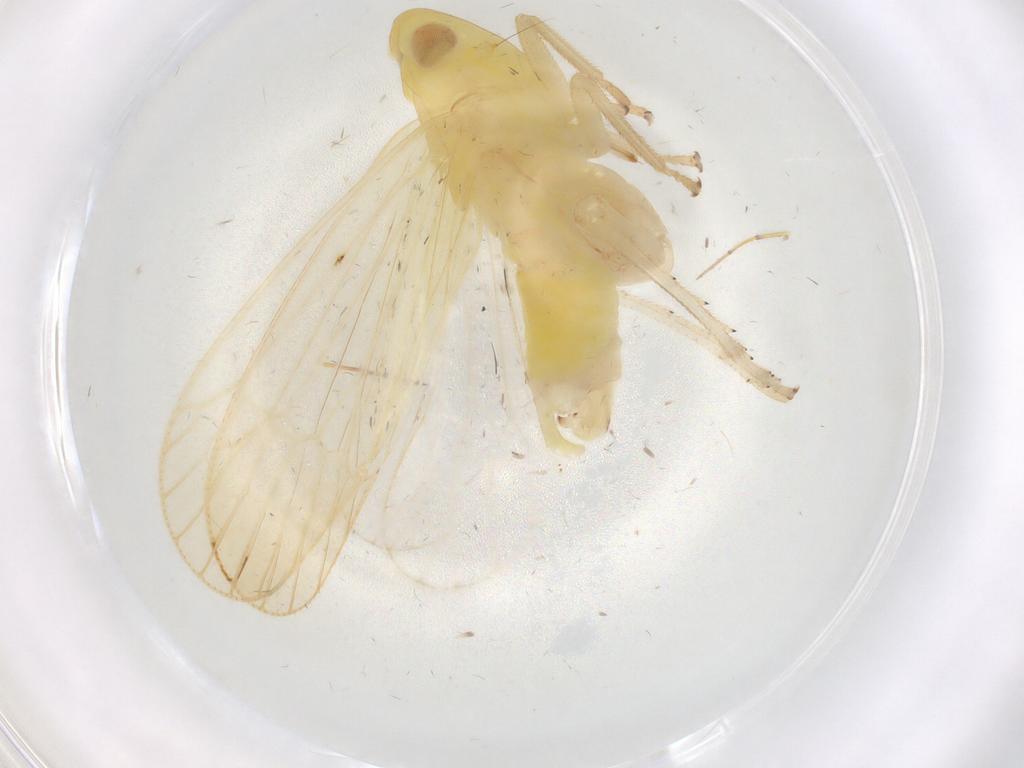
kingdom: Animalia
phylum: Arthropoda
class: Insecta
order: Hemiptera
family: Tropiduchidae
